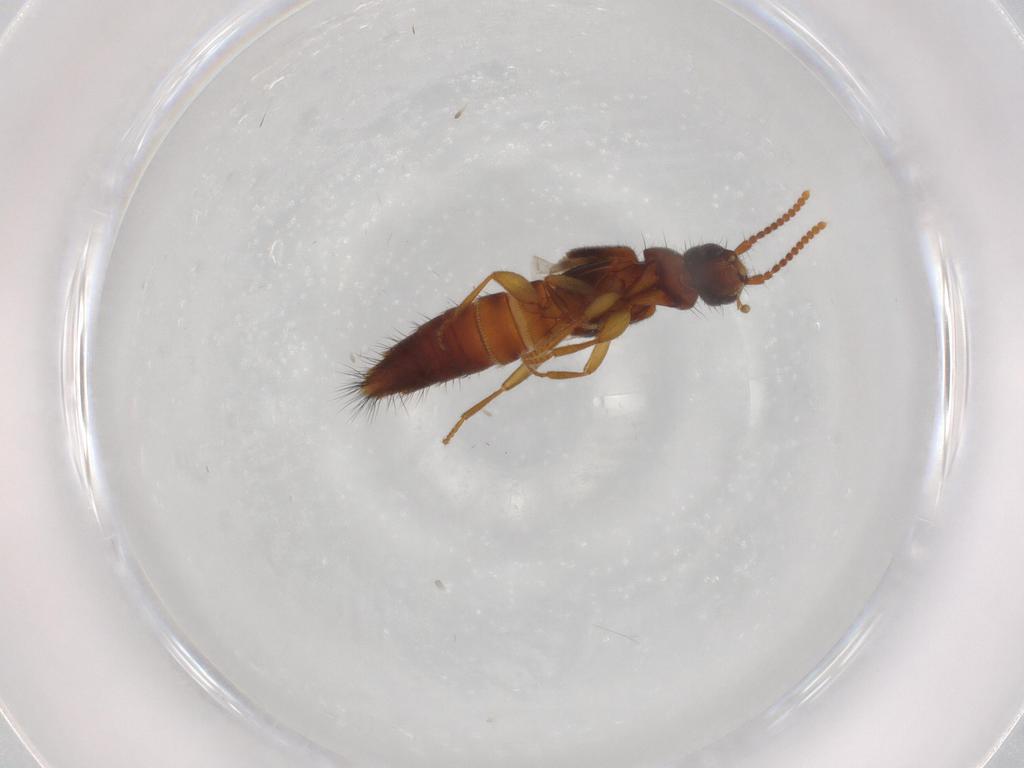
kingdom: Animalia
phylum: Arthropoda
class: Insecta
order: Coleoptera
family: Staphylinidae
